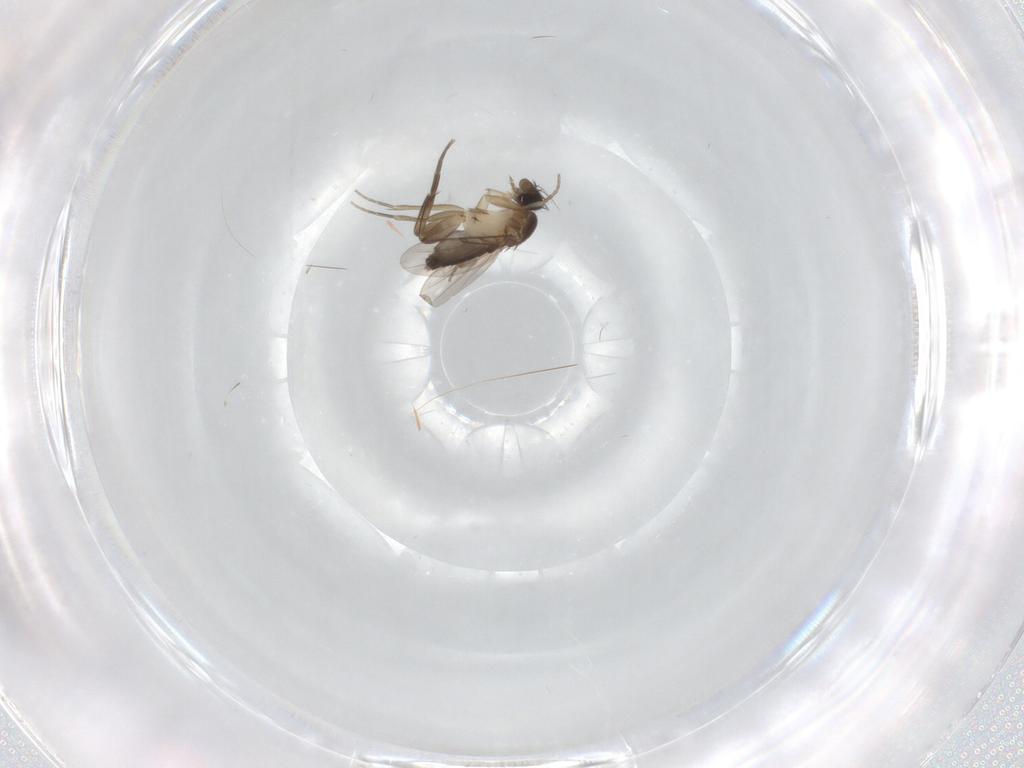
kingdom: Animalia
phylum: Arthropoda
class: Insecta
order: Diptera
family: Phoridae
